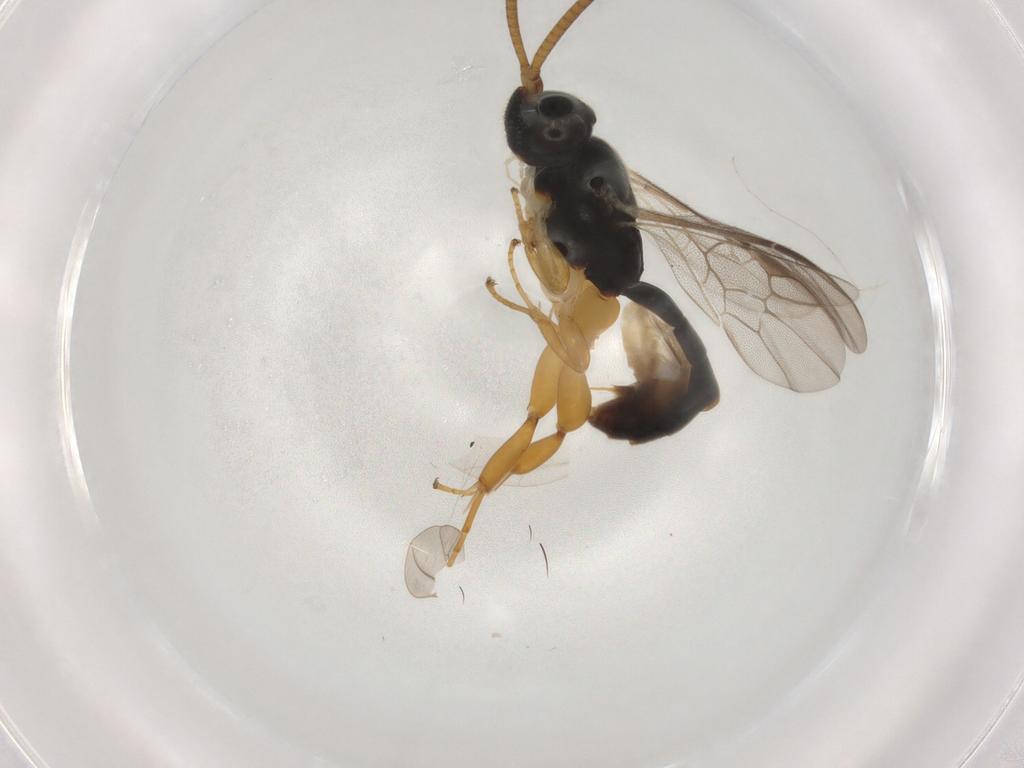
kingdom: Animalia
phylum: Arthropoda
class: Insecta
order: Hymenoptera
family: Ichneumonidae
